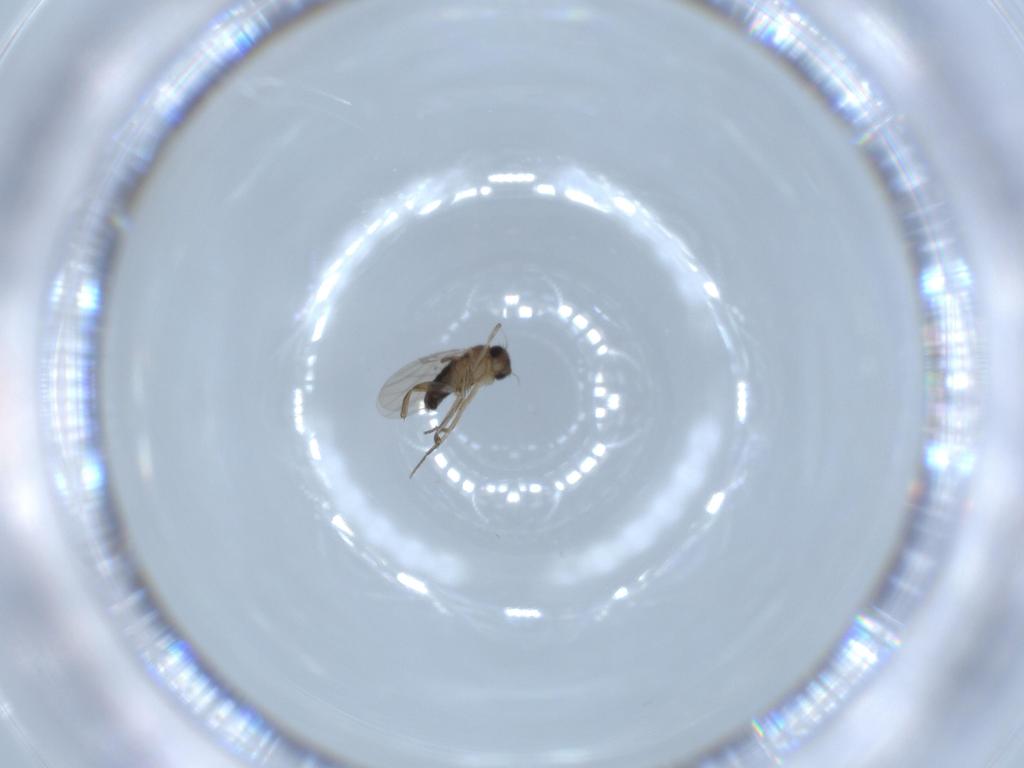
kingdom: Animalia
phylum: Arthropoda
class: Insecta
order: Diptera
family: Phoridae
